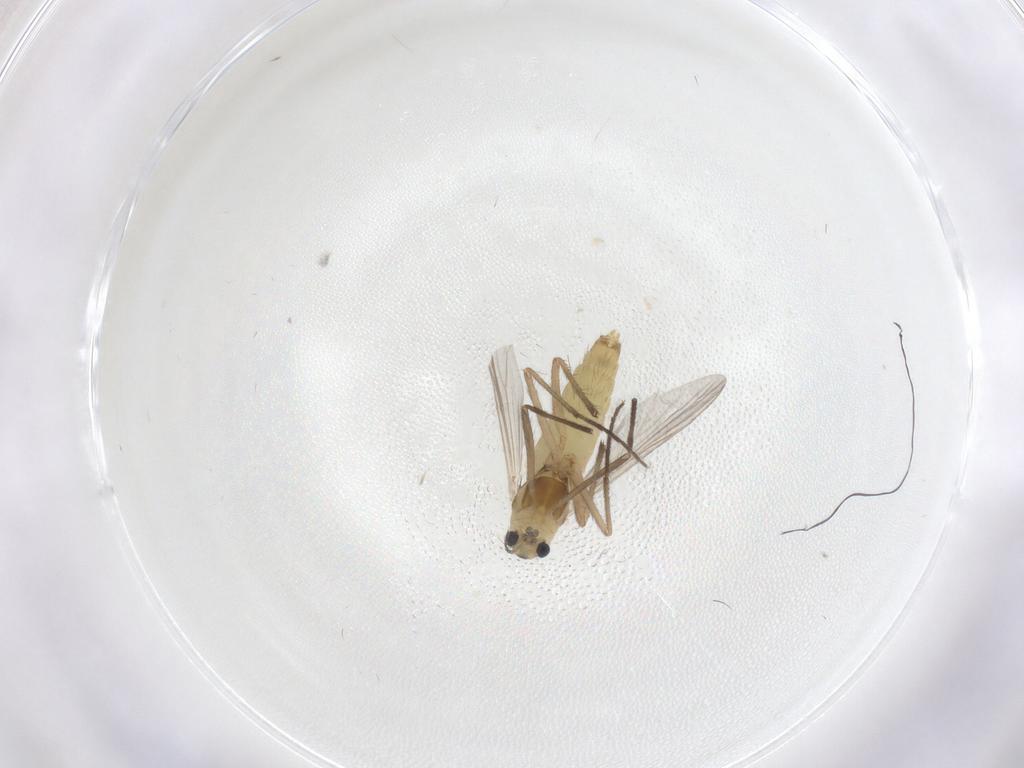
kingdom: Animalia
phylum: Arthropoda
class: Insecta
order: Diptera
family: Chironomidae
